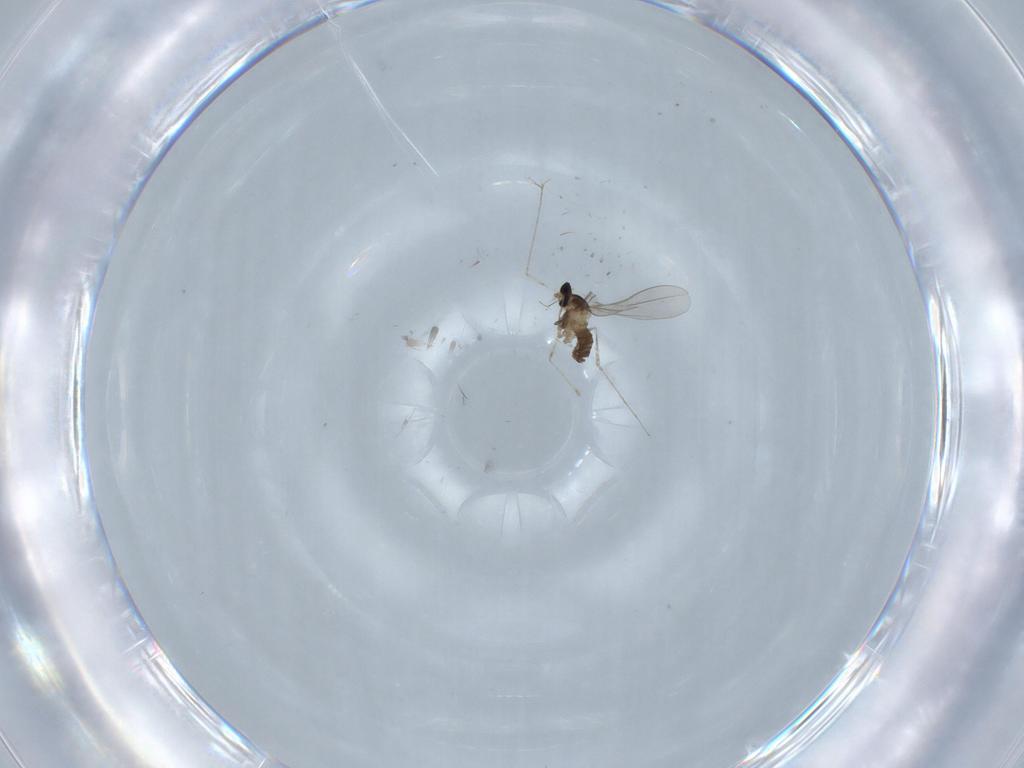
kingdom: Animalia
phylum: Arthropoda
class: Insecta
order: Diptera
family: Cecidomyiidae
